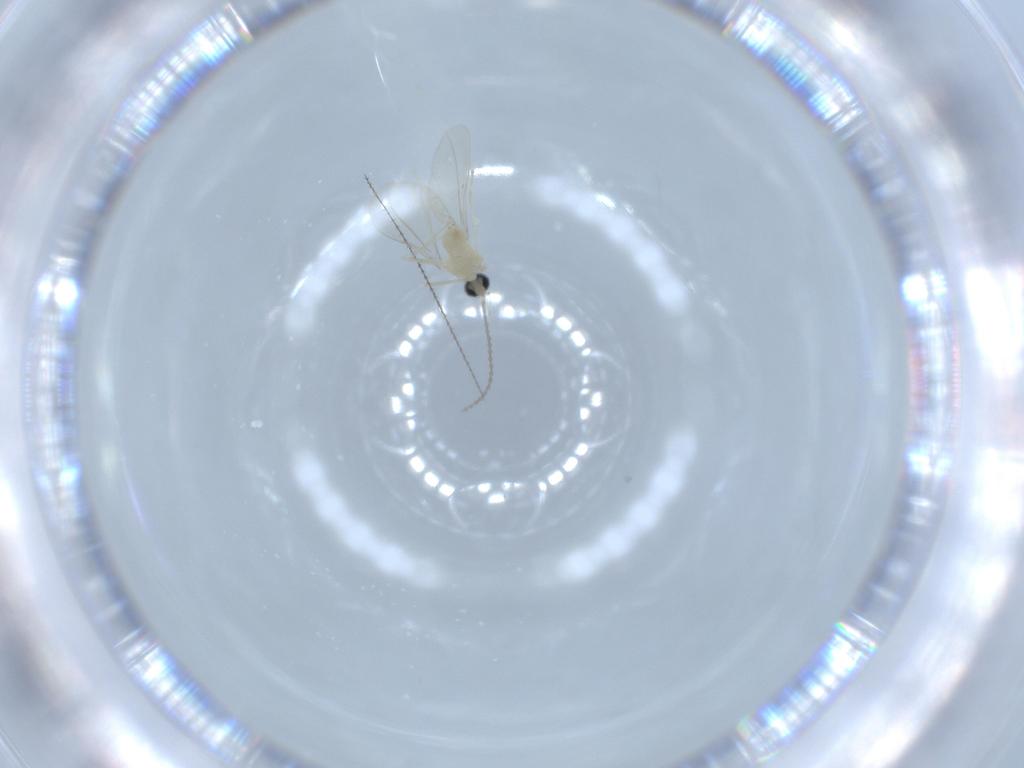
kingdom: Animalia
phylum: Arthropoda
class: Insecta
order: Diptera
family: Cecidomyiidae
